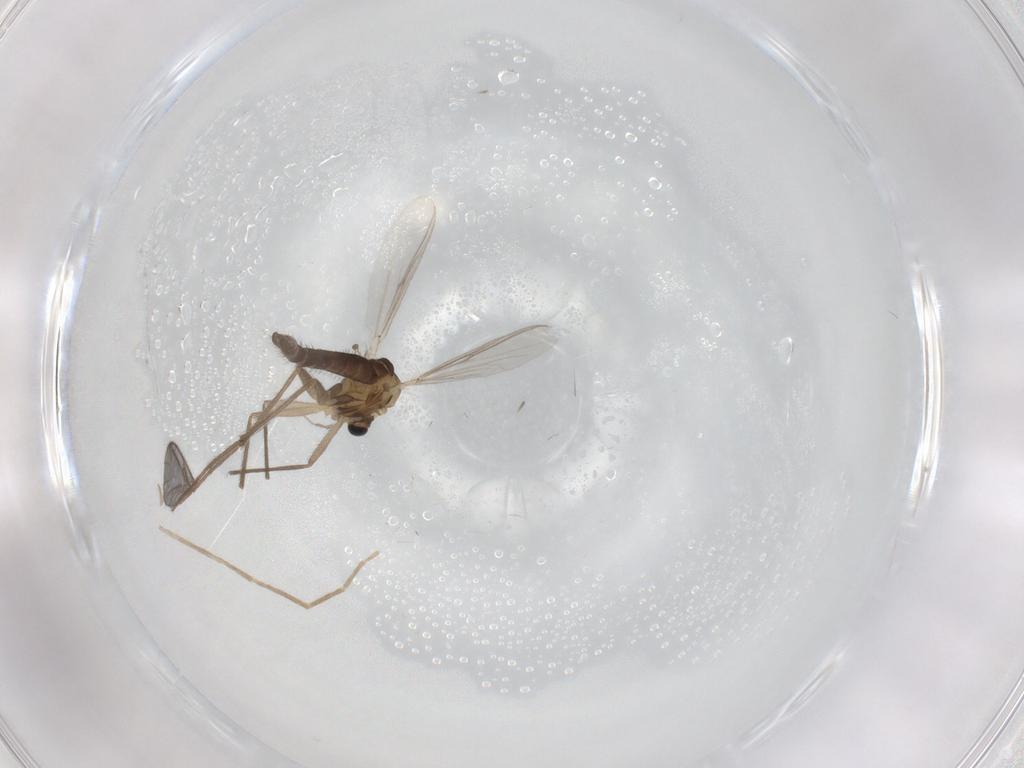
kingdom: Animalia
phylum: Arthropoda
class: Insecta
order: Diptera
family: Chironomidae
